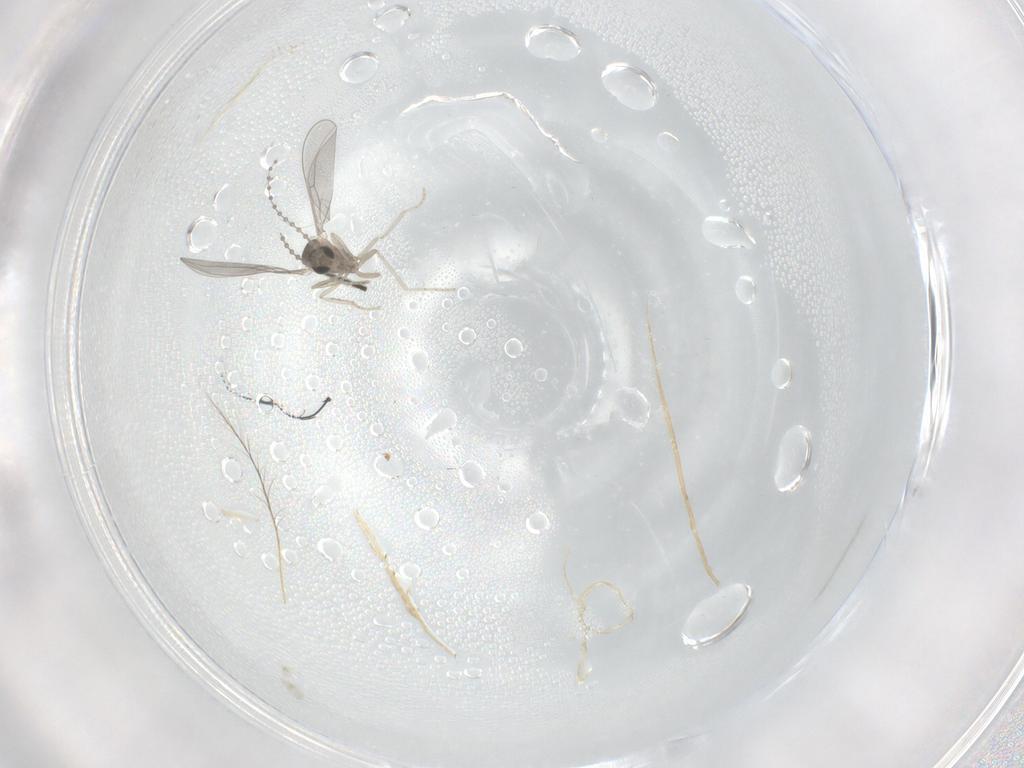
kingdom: Animalia
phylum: Arthropoda
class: Insecta
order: Diptera
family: Cecidomyiidae
